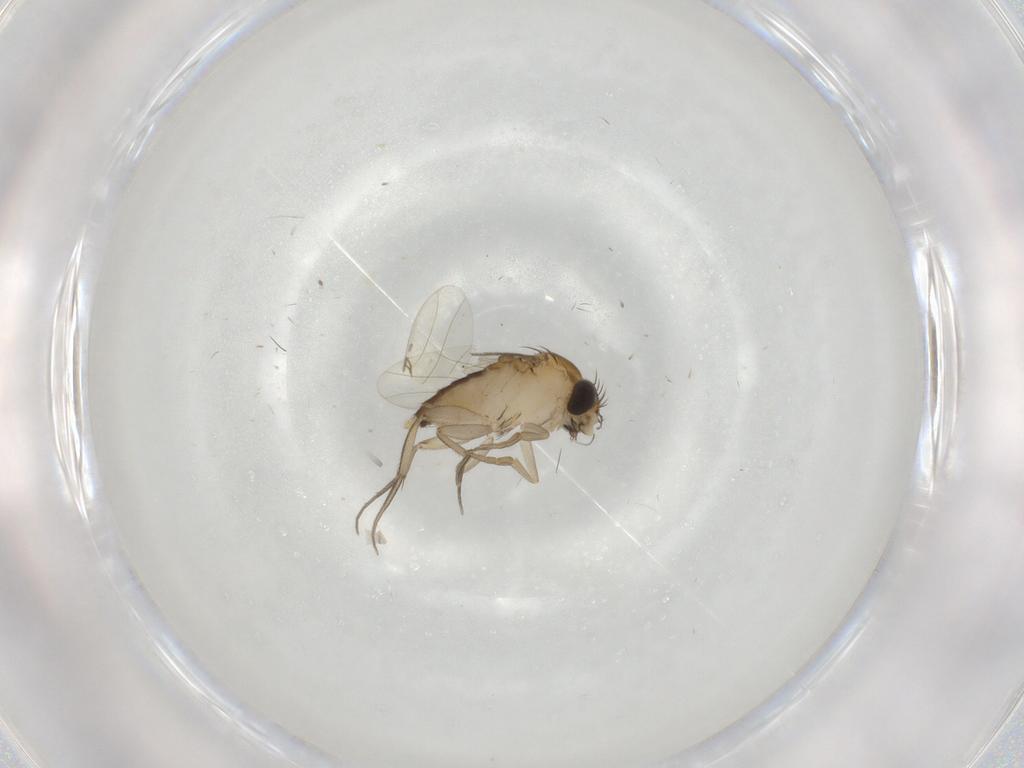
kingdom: Animalia
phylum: Arthropoda
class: Insecta
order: Diptera
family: Phoridae
